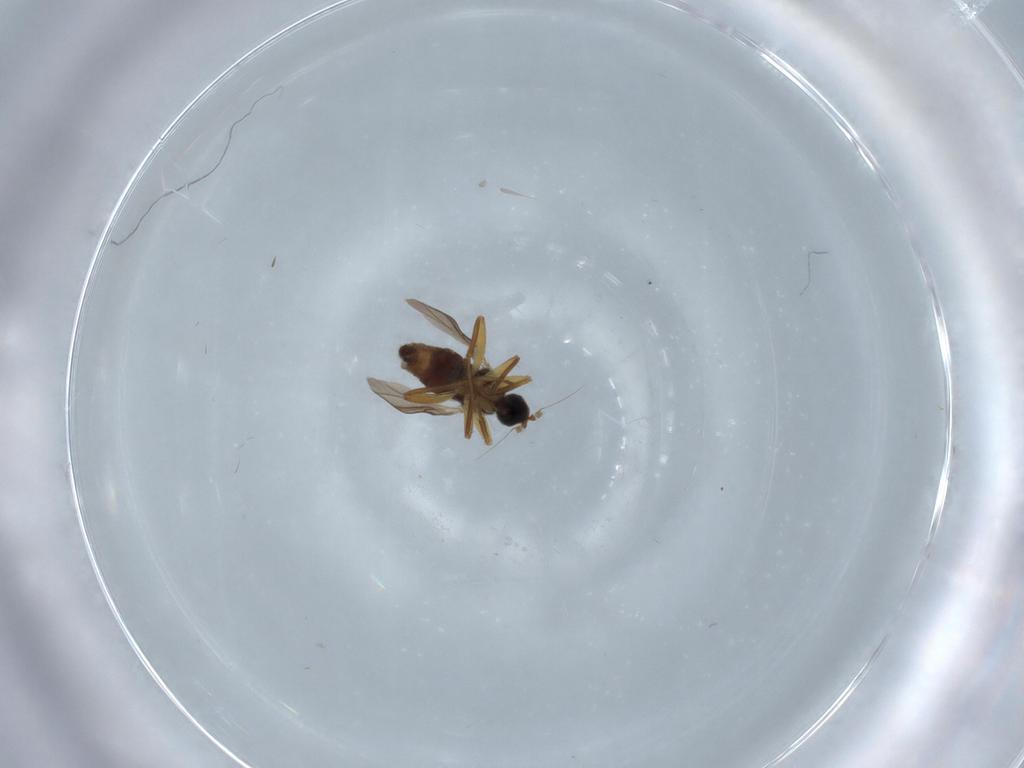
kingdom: Animalia
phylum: Arthropoda
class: Insecta
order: Diptera
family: Hybotidae
